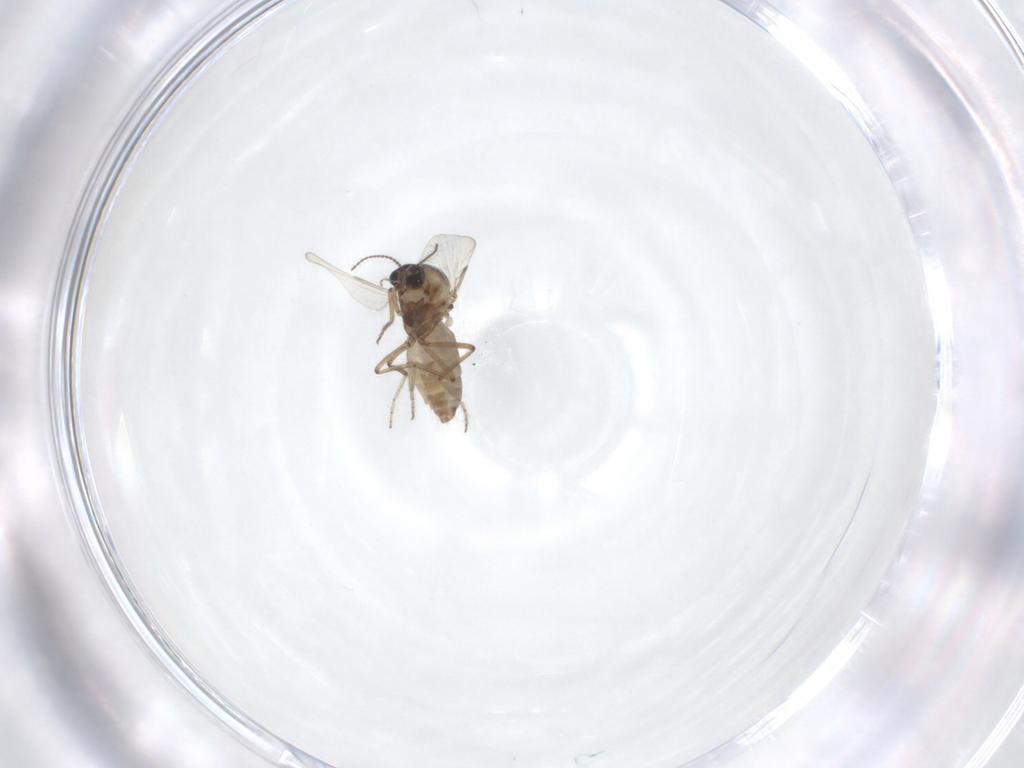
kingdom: Animalia
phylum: Arthropoda
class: Insecta
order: Diptera
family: Ceratopogonidae
